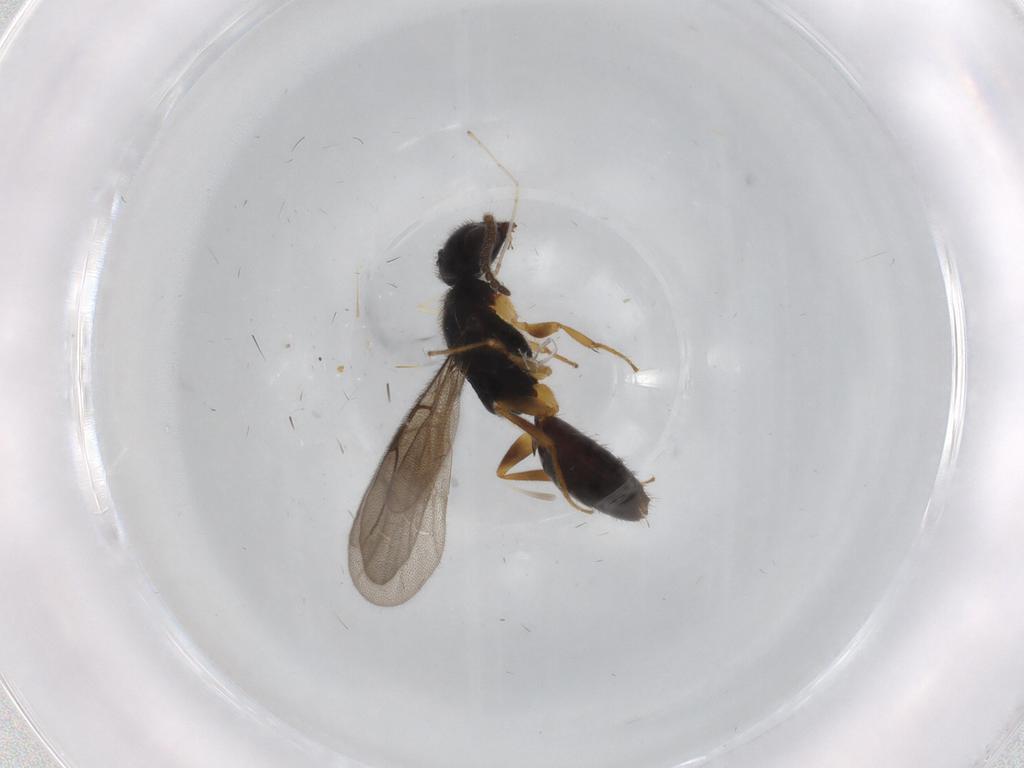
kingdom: Animalia
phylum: Arthropoda
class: Insecta
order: Hymenoptera
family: Bethylidae
